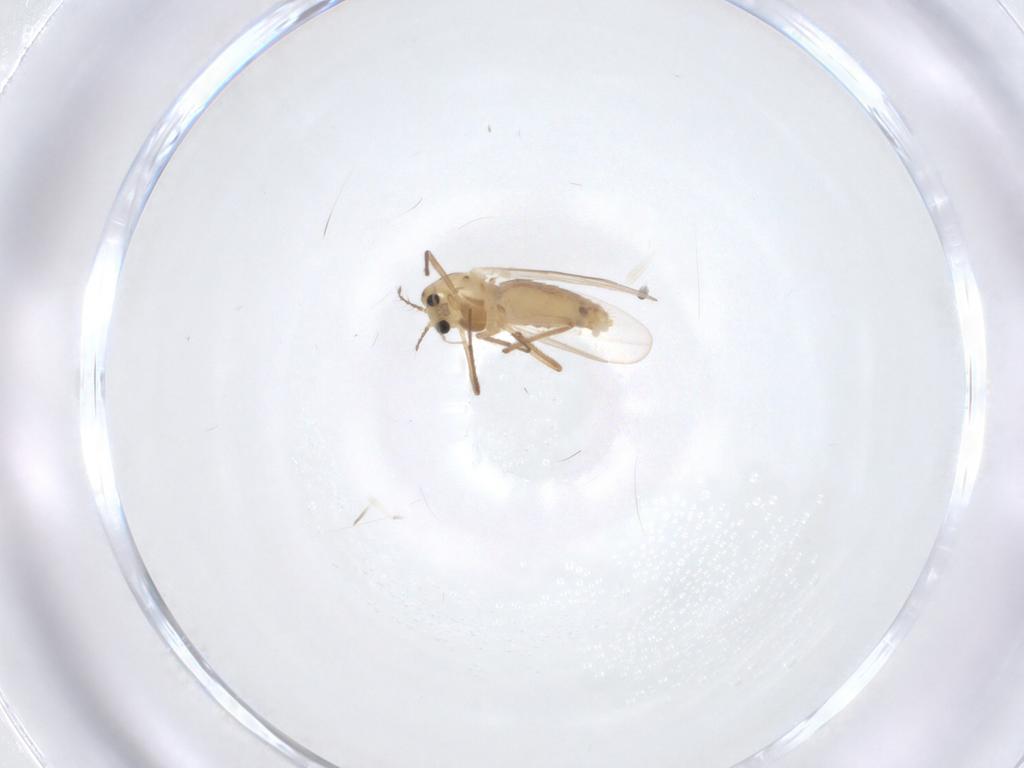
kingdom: Animalia
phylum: Arthropoda
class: Insecta
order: Diptera
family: Chironomidae
